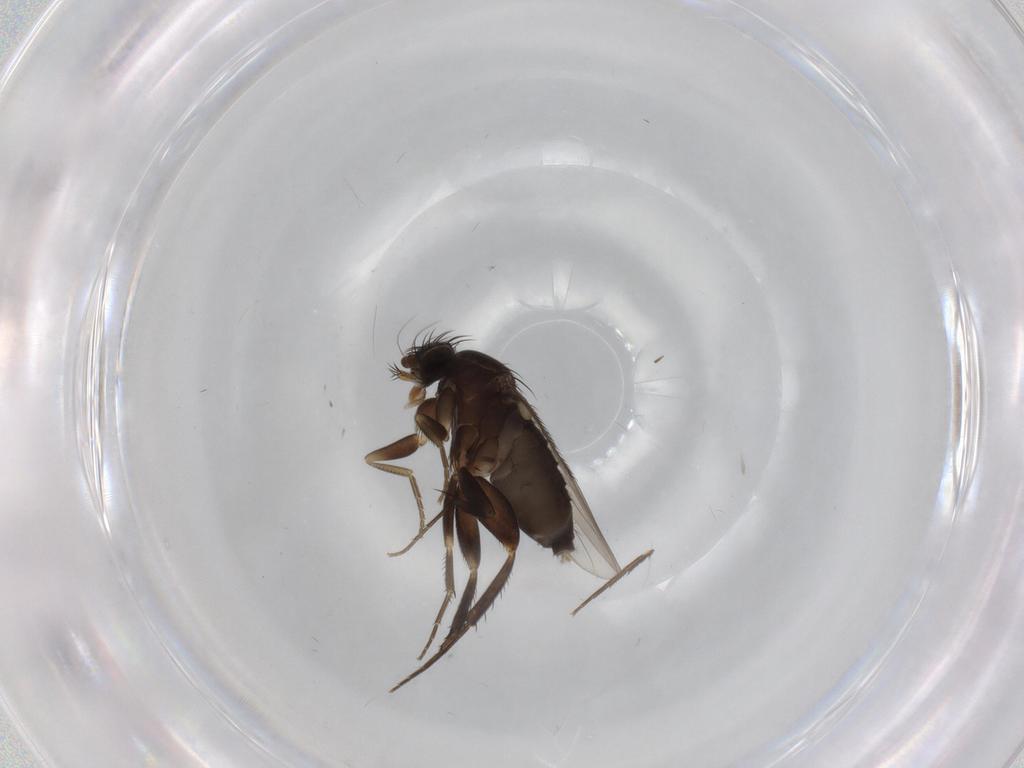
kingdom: Animalia
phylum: Arthropoda
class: Insecta
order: Diptera
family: Phoridae
